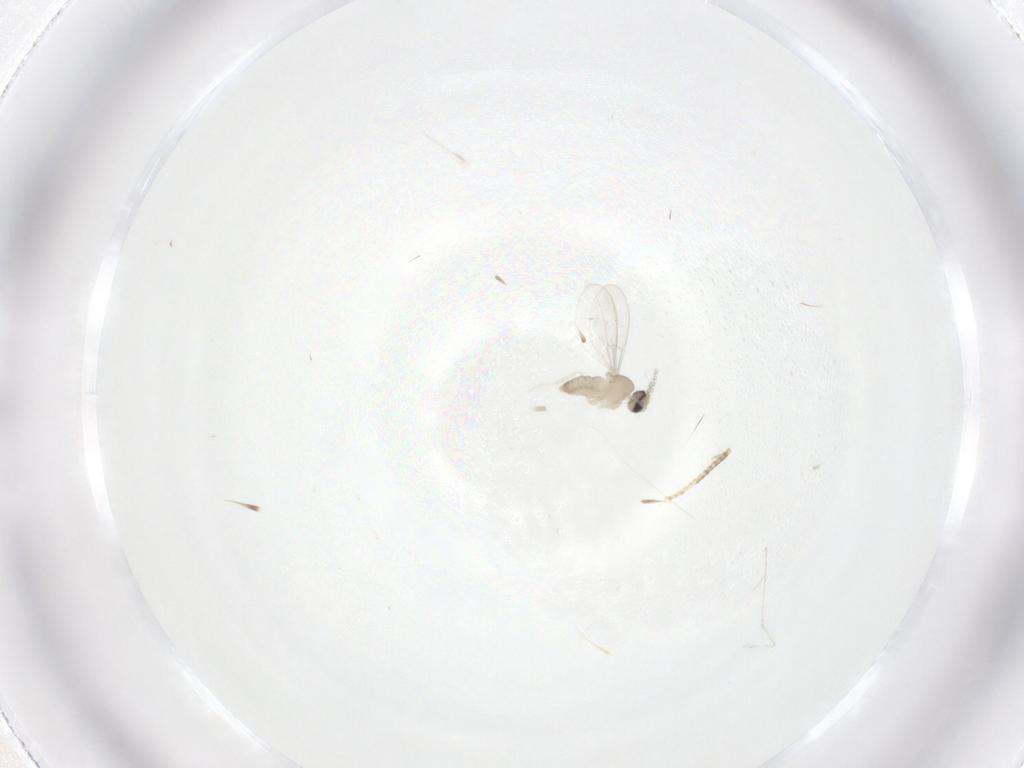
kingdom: Animalia
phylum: Arthropoda
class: Insecta
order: Diptera
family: Cecidomyiidae
